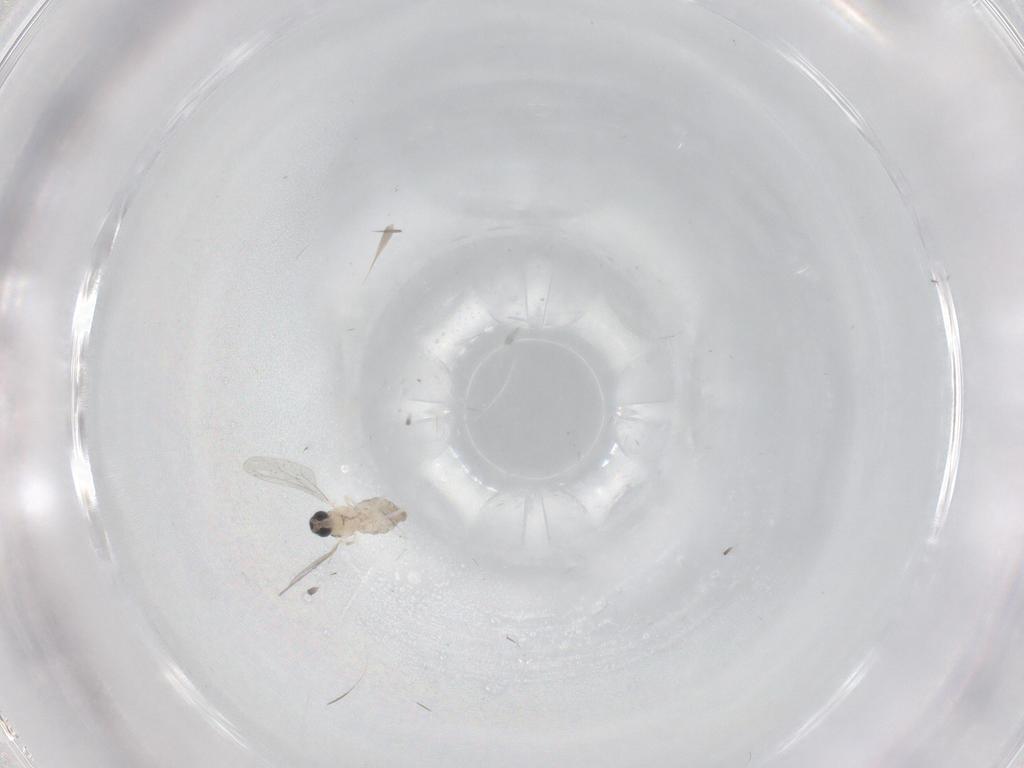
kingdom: Animalia
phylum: Arthropoda
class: Insecta
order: Diptera
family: Cecidomyiidae
